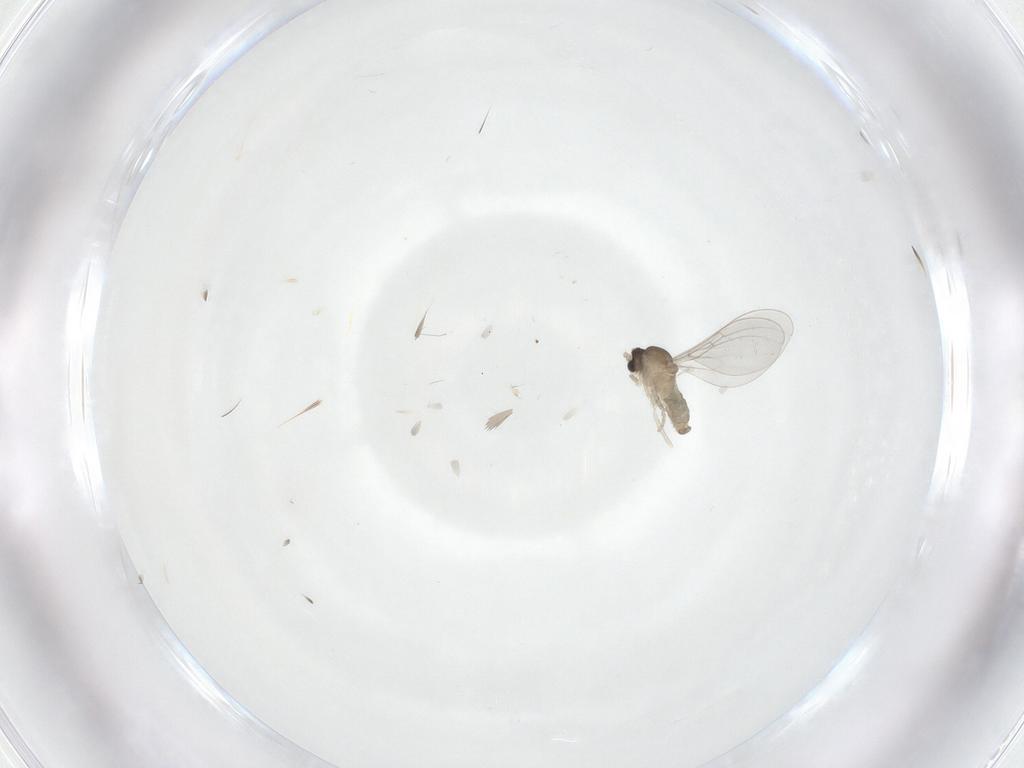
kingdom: Animalia
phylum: Arthropoda
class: Insecta
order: Diptera
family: Cecidomyiidae
